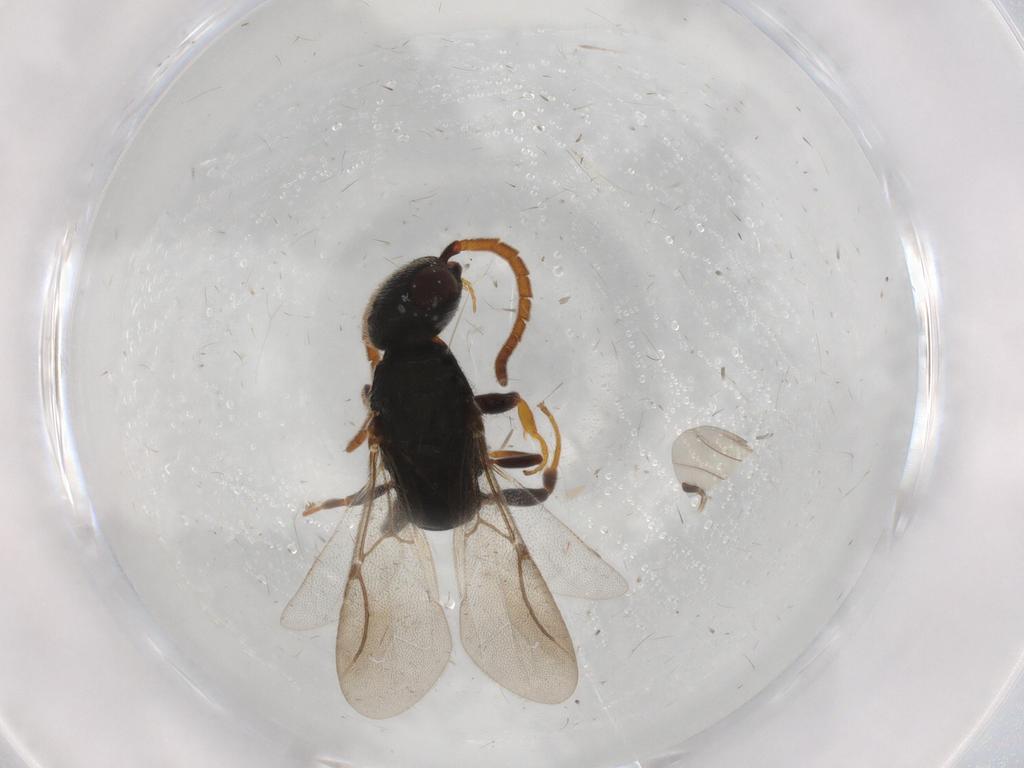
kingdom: Animalia
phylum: Arthropoda
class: Insecta
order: Hymenoptera
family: Bethylidae
